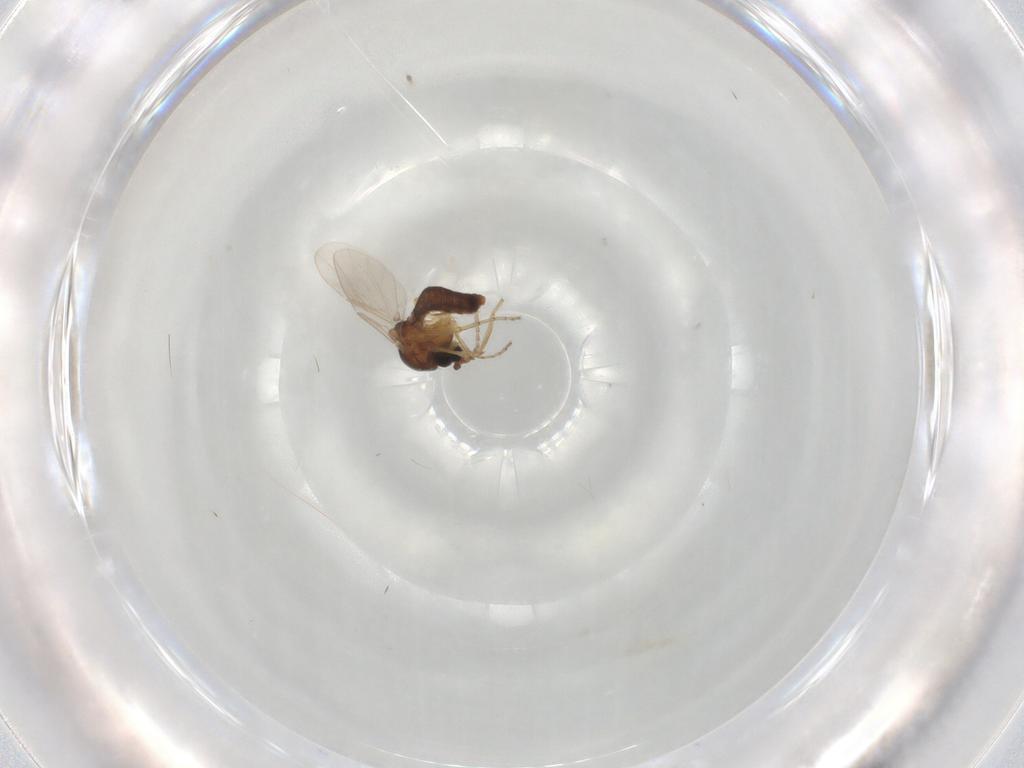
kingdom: Animalia
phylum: Arthropoda
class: Insecta
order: Diptera
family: Ceratopogonidae
